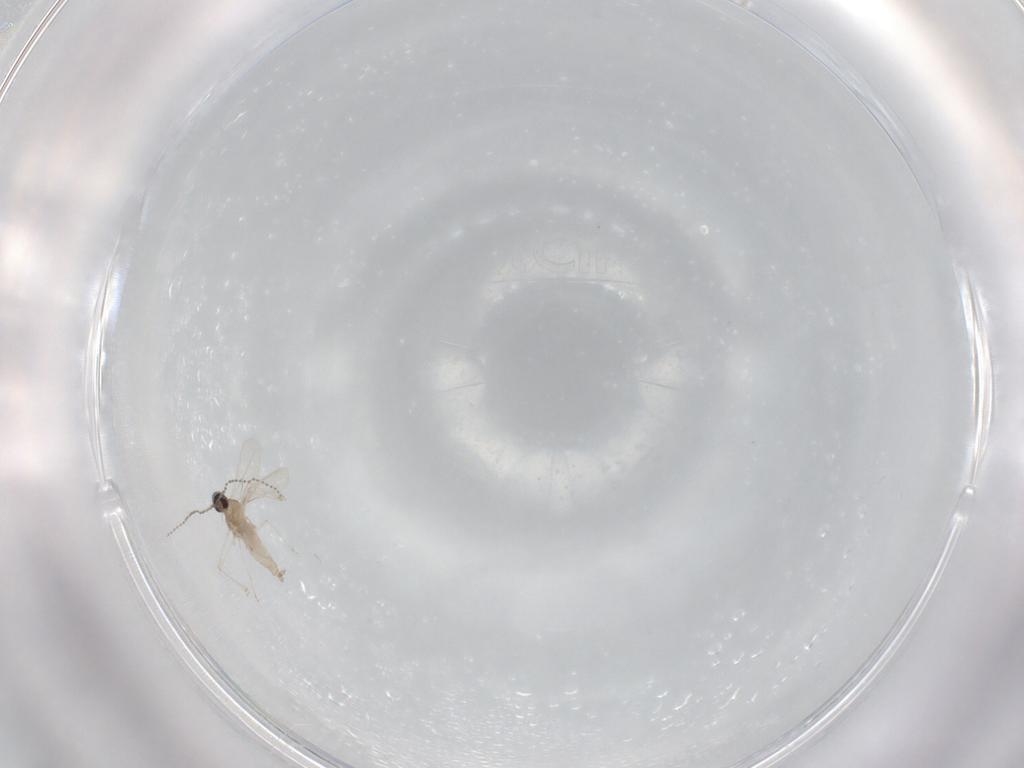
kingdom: Animalia
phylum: Arthropoda
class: Insecta
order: Diptera
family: Cecidomyiidae
